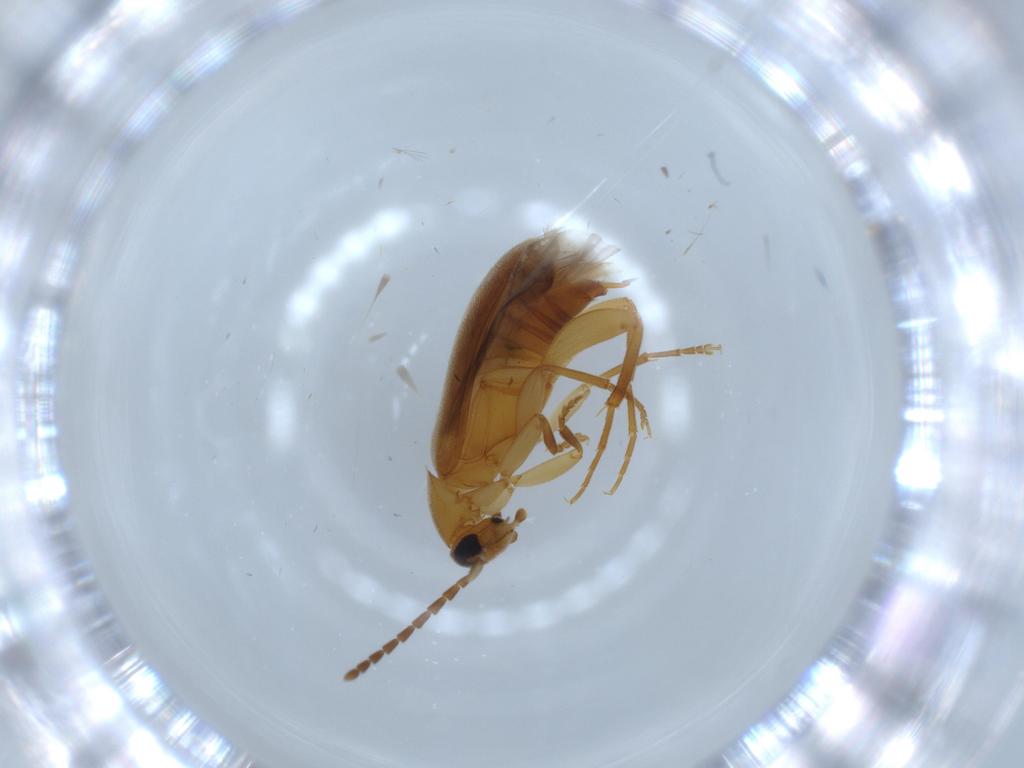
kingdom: Animalia
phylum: Arthropoda
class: Insecta
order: Coleoptera
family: Scraptiidae
